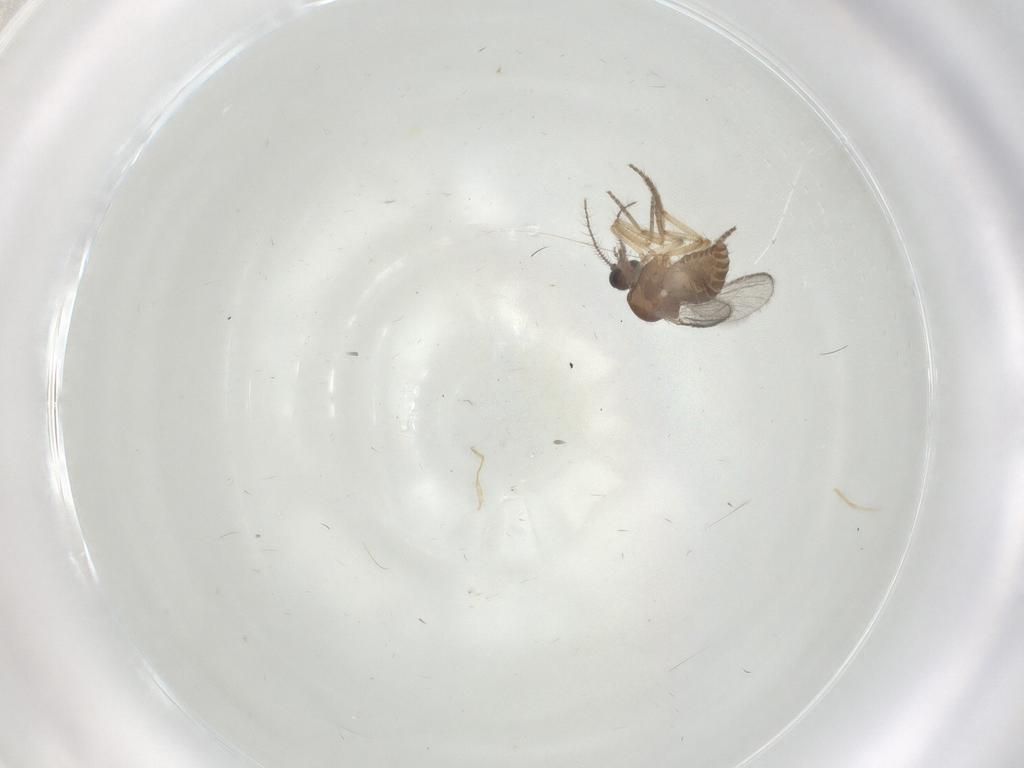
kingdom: Animalia
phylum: Arthropoda
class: Insecta
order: Diptera
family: Ceratopogonidae
